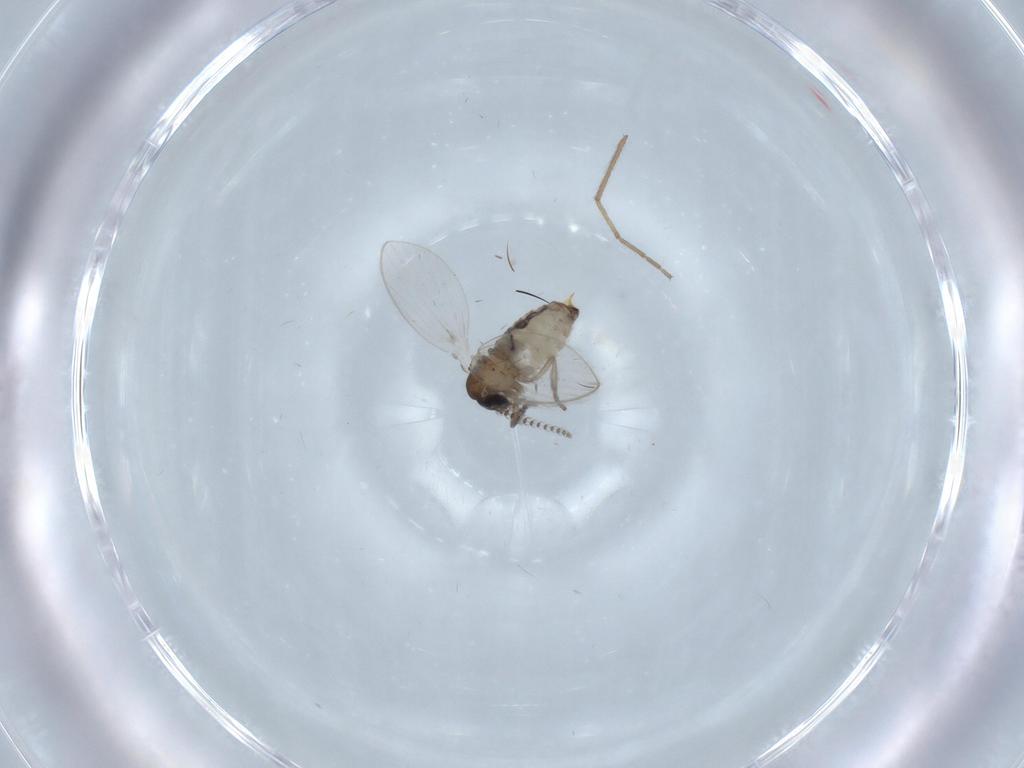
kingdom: Animalia
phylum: Arthropoda
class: Insecta
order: Diptera
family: Psychodidae
